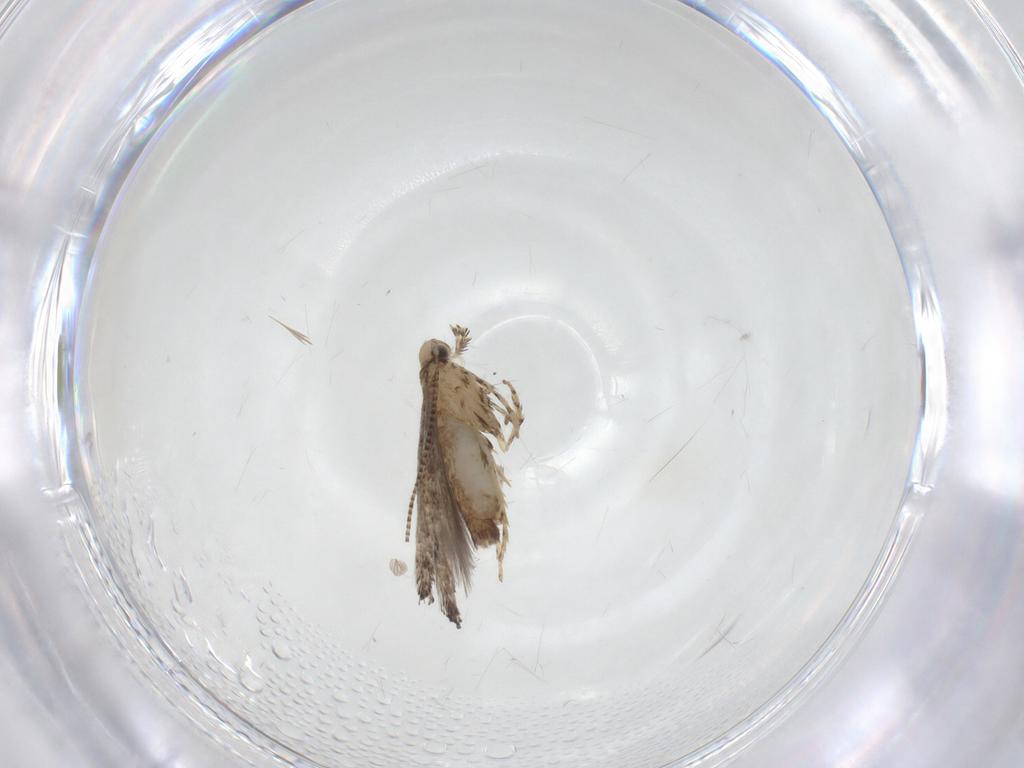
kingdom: Animalia
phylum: Arthropoda
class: Insecta
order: Lepidoptera
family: Gracillariidae
